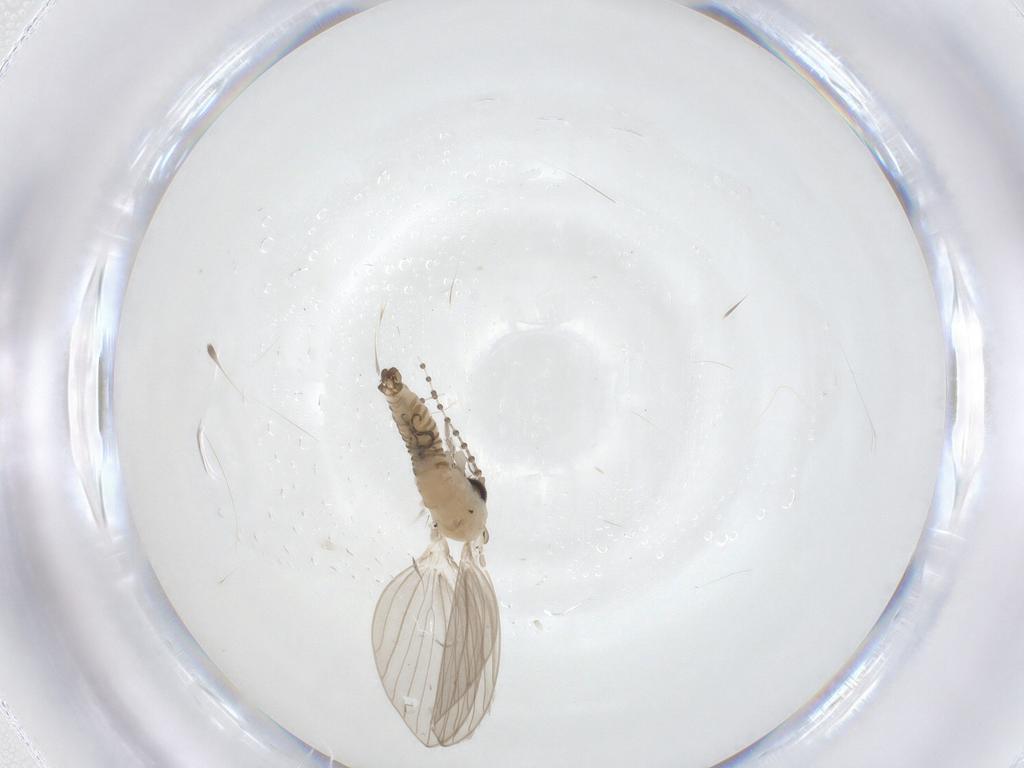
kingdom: Animalia
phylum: Arthropoda
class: Insecta
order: Diptera
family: Psychodidae
